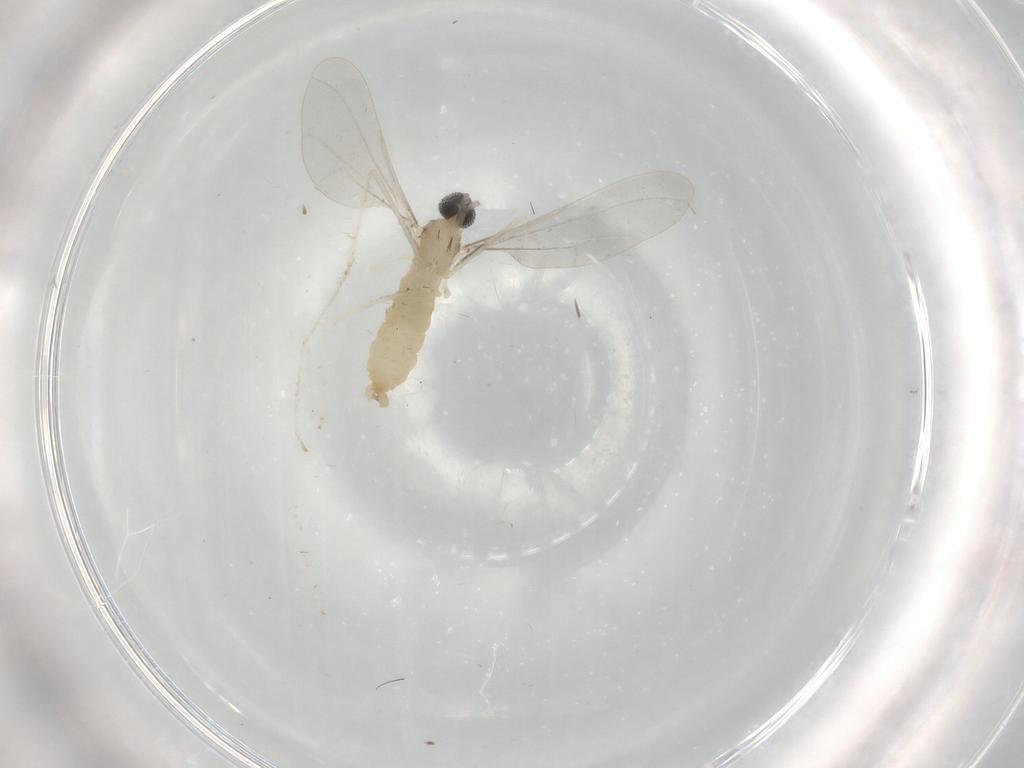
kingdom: Animalia
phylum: Arthropoda
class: Insecta
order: Diptera
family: Cecidomyiidae
